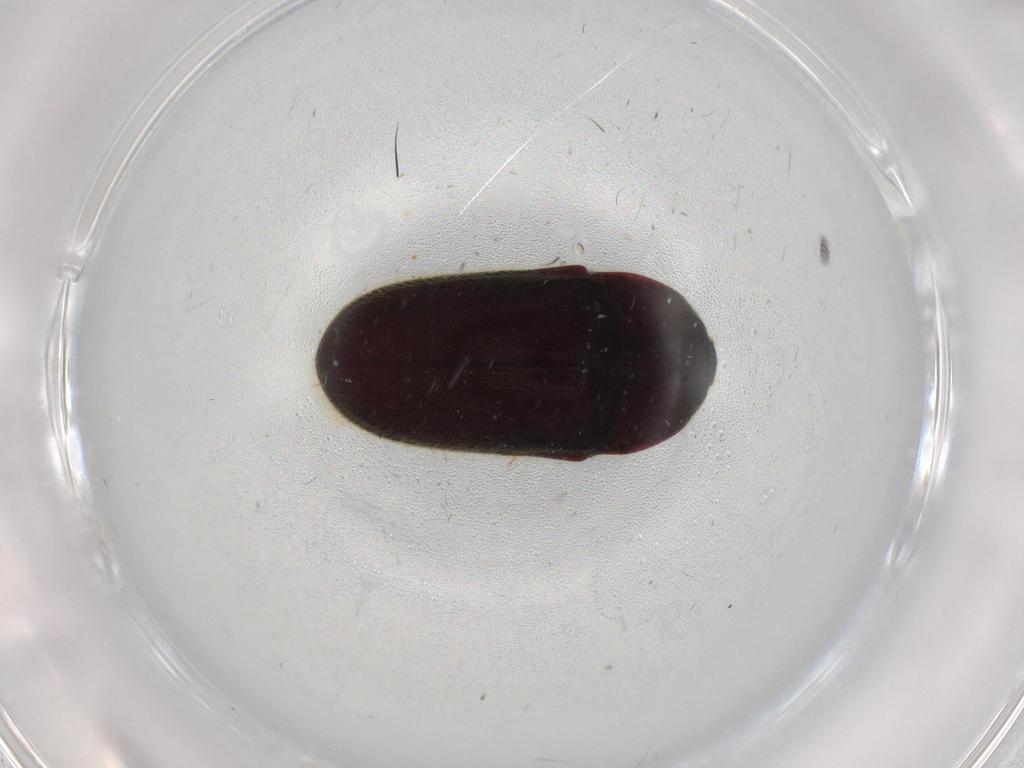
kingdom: Animalia
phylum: Arthropoda
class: Insecta
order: Coleoptera
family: Throscidae
